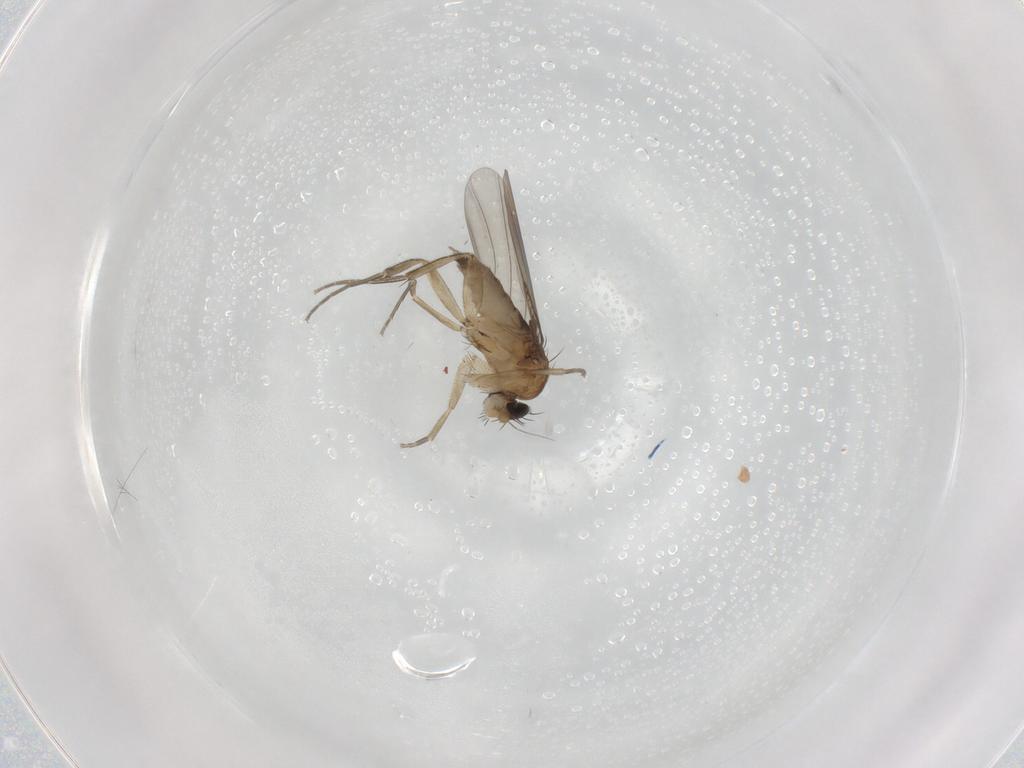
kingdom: Animalia
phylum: Arthropoda
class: Insecta
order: Diptera
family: Phoridae
